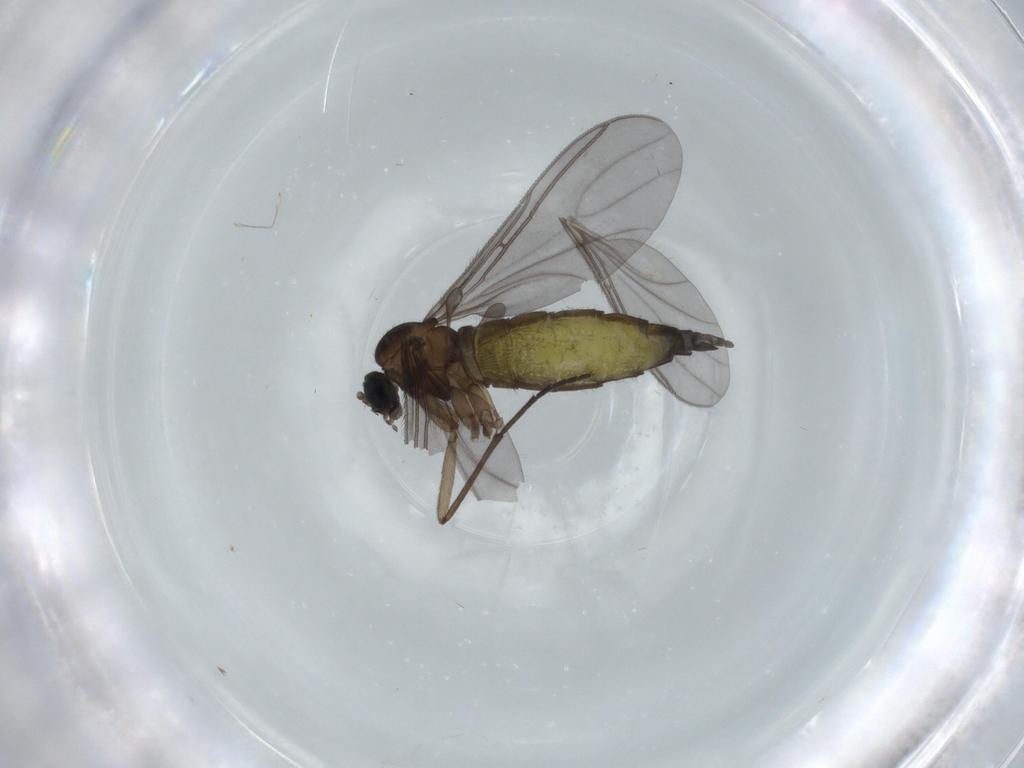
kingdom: Animalia
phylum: Arthropoda
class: Insecta
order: Diptera
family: Sciaridae
